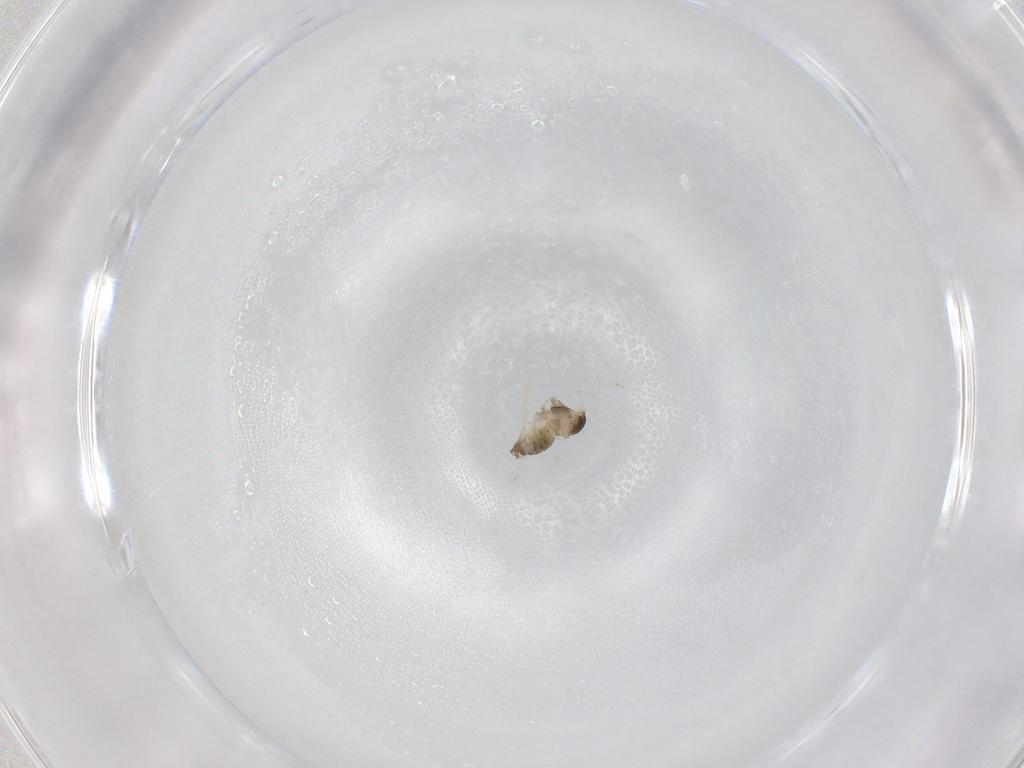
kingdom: Animalia
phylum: Arthropoda
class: Insecta
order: Diptera
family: Cecidomyiidae
